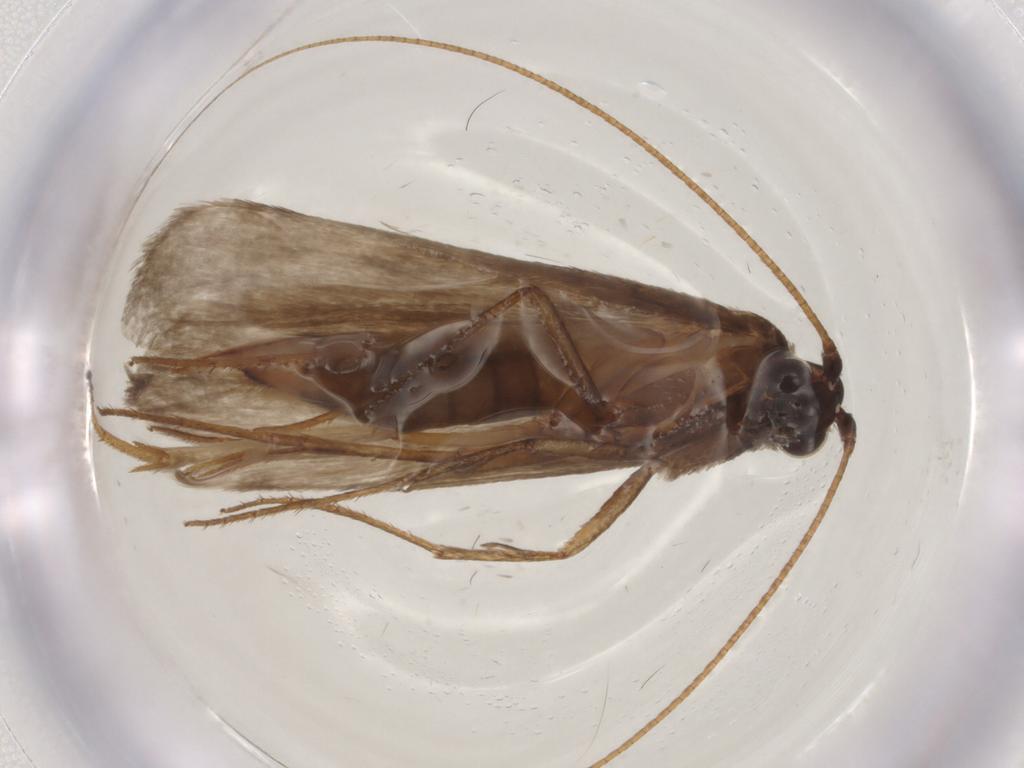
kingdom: Animalia
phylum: Arthropoda
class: Insecta
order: Lepidoptera
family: Adelidae
